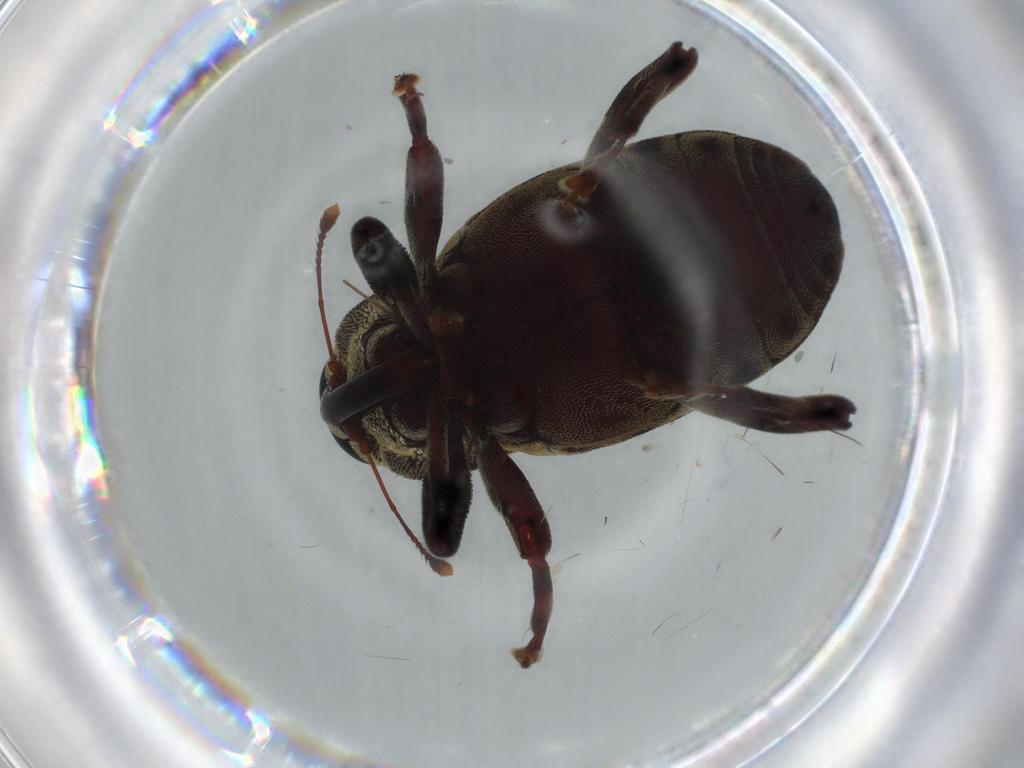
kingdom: Animalia
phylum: Arthropoda
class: Insecta
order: Coleoptera
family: Curculionidae
